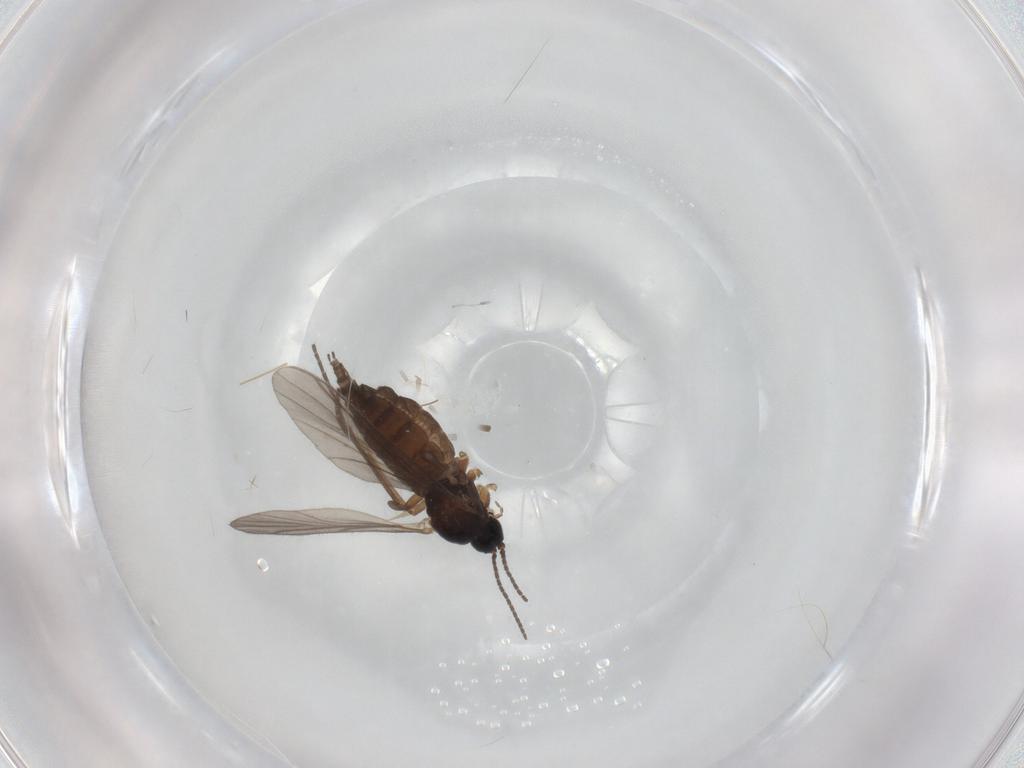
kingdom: Animalia
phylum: Arthropoda
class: Insecta
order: Diptera
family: Sciaridae
